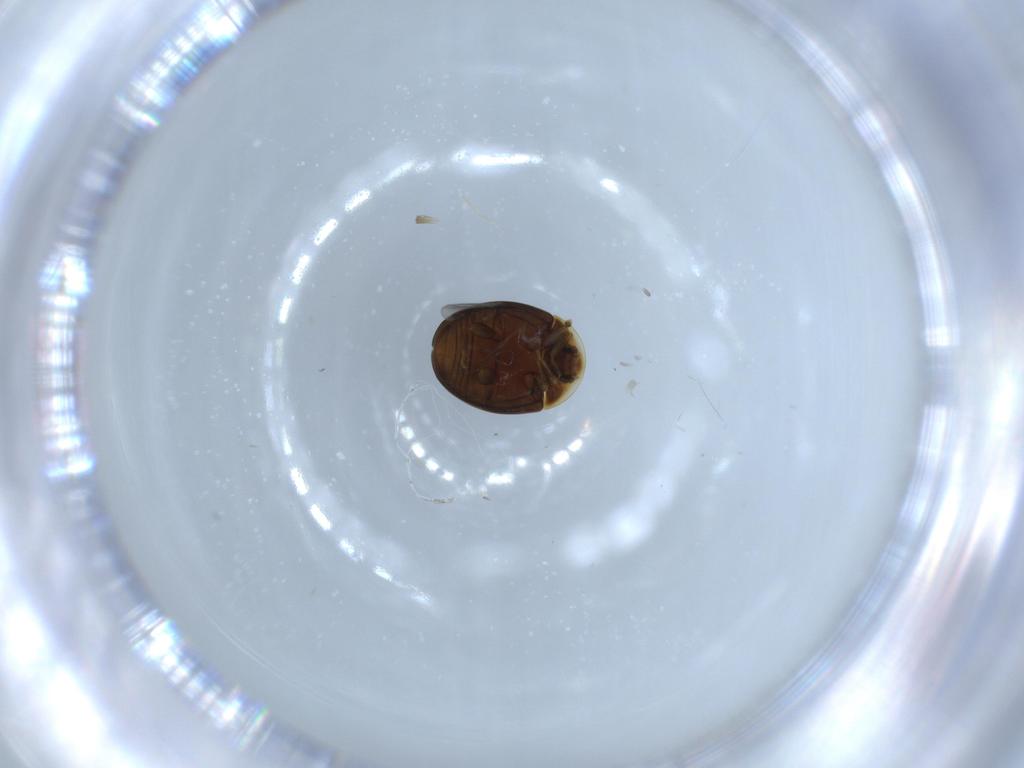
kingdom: Animalia
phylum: Arthropoda
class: Insecta
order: Coleoptera
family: Corylophidae
